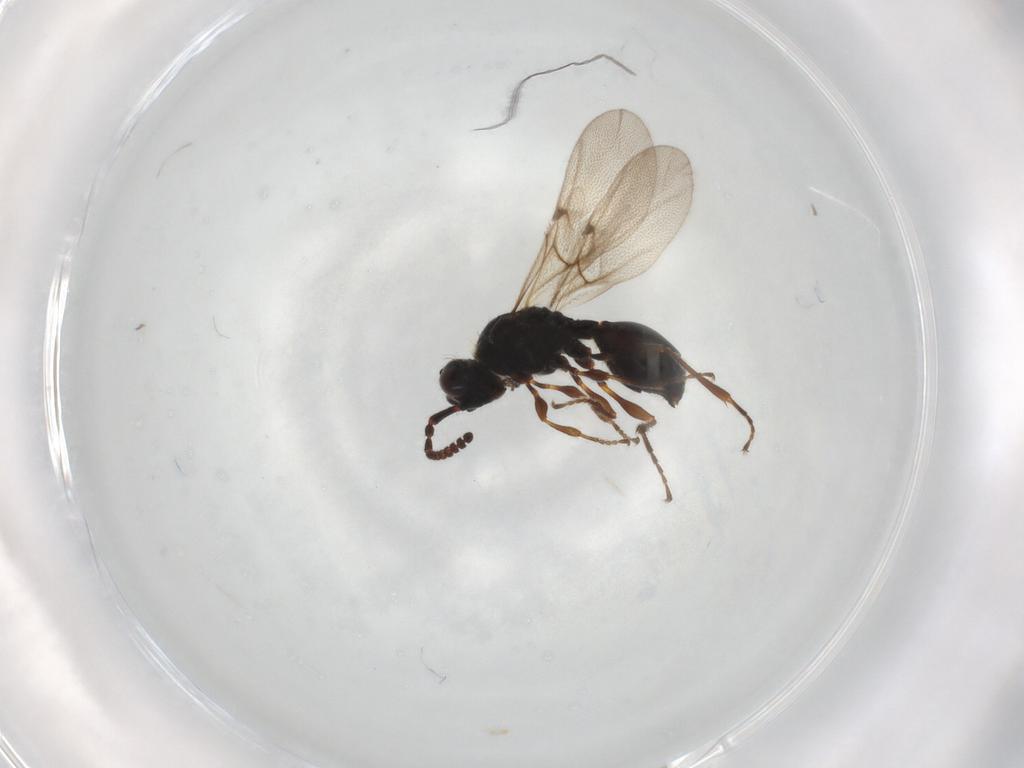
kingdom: Animalia
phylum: Arthropoda
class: Insecta
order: Hymenoptera
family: Diapriidae
